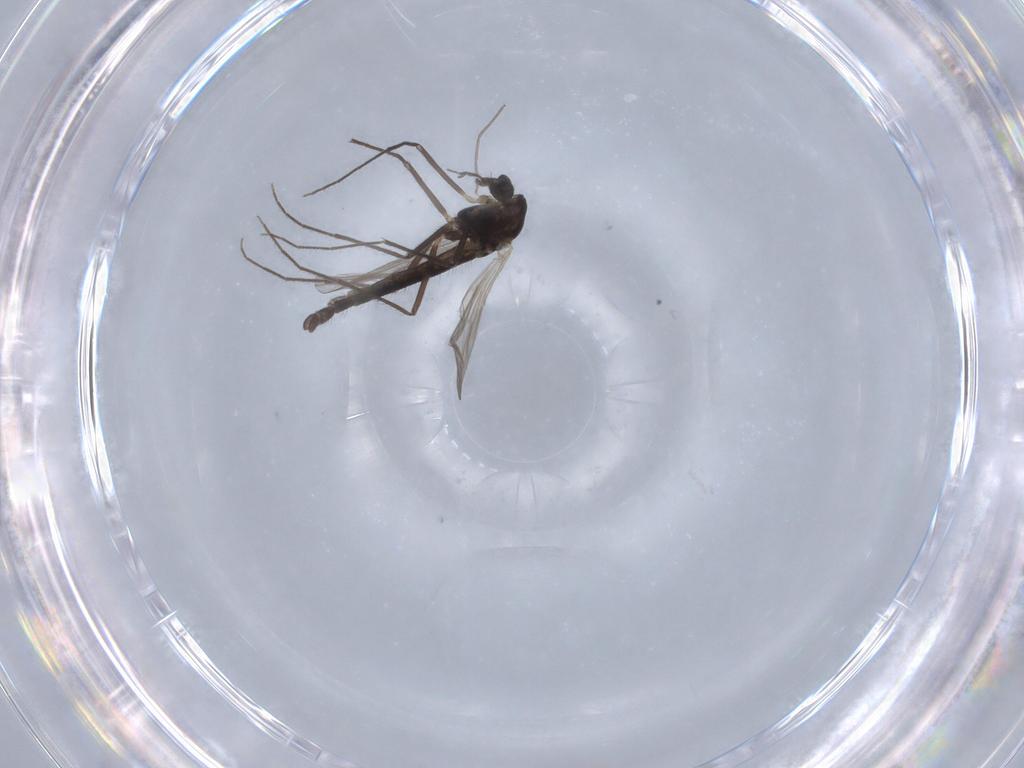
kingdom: Animalia
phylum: Arthropoda
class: Insecta
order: Diptera
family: Chironomidae
